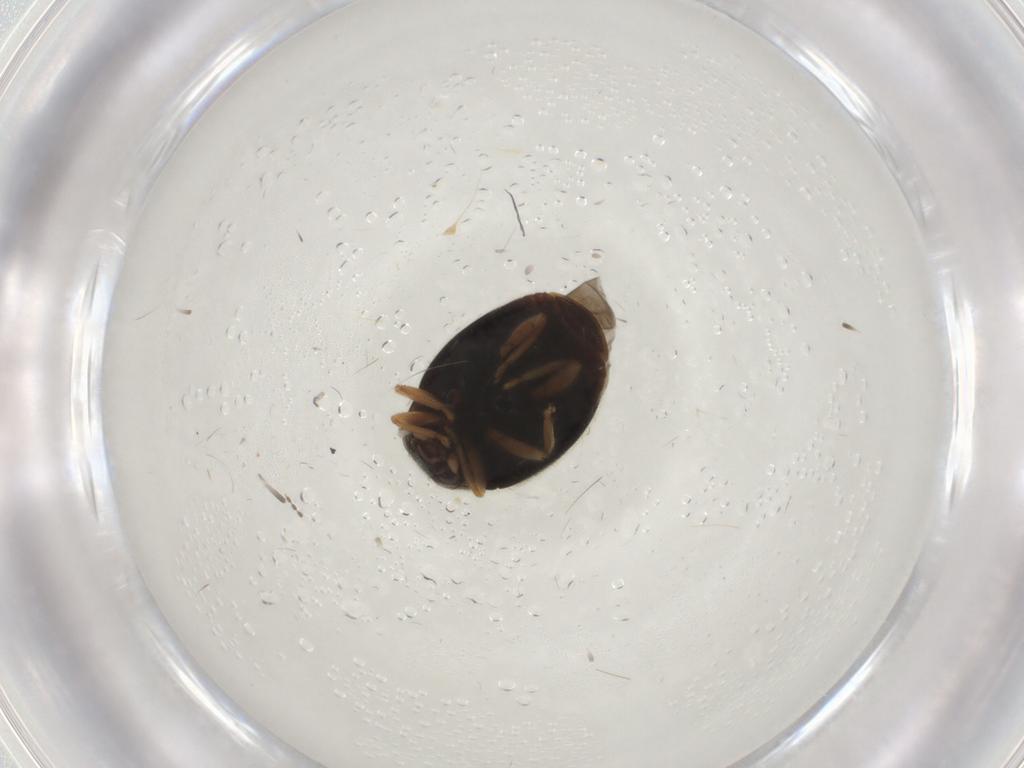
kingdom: Animalia
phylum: Arthropoda
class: Insecta
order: Coleoptera
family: Coccinellidae
